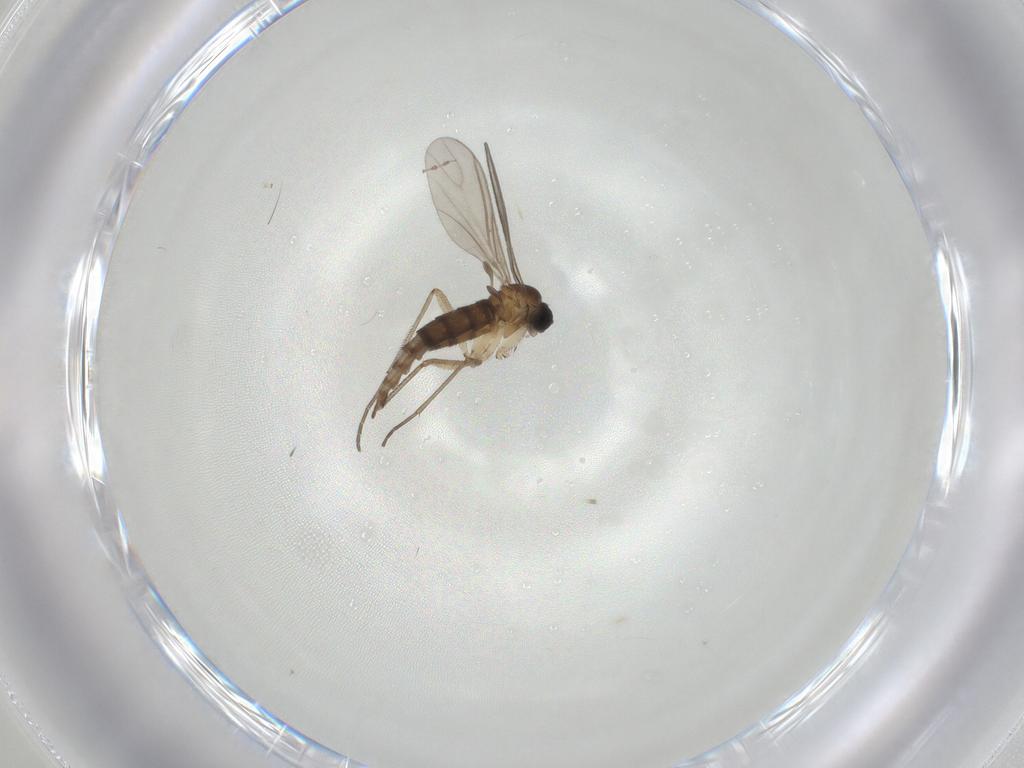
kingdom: Animalia
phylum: Arthropoda
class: Insecta
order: Diptera
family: Sciaridae
